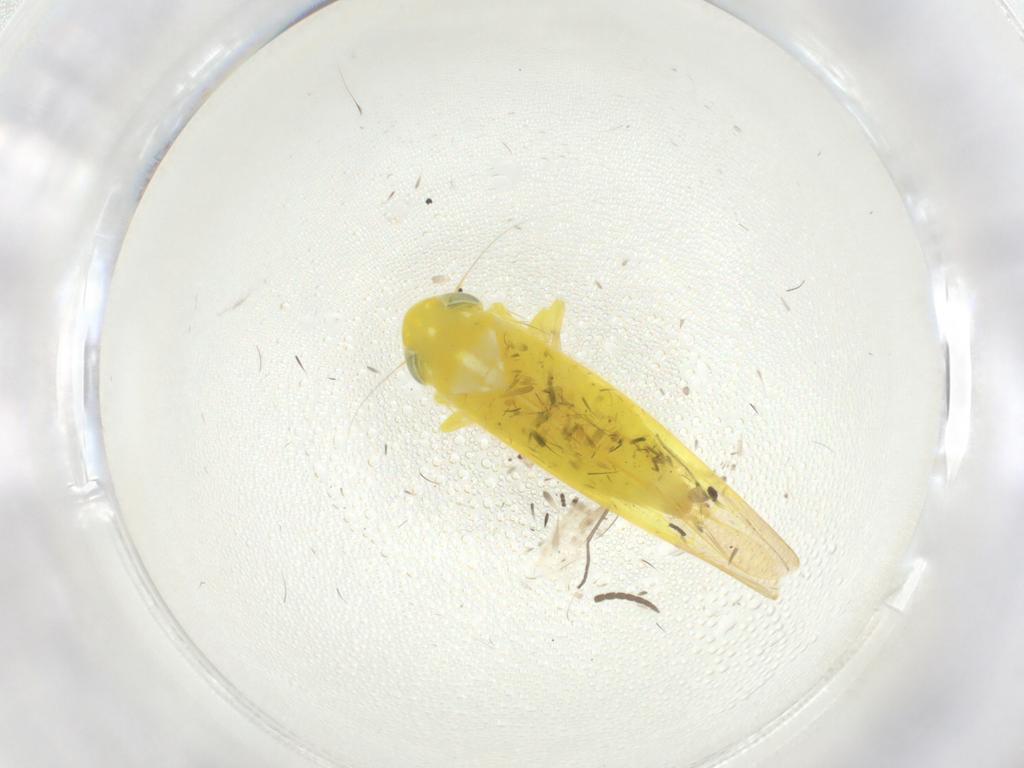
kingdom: Animalia
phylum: Arthropoda
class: Insecta
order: Hemiptera
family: Cicadellidae
